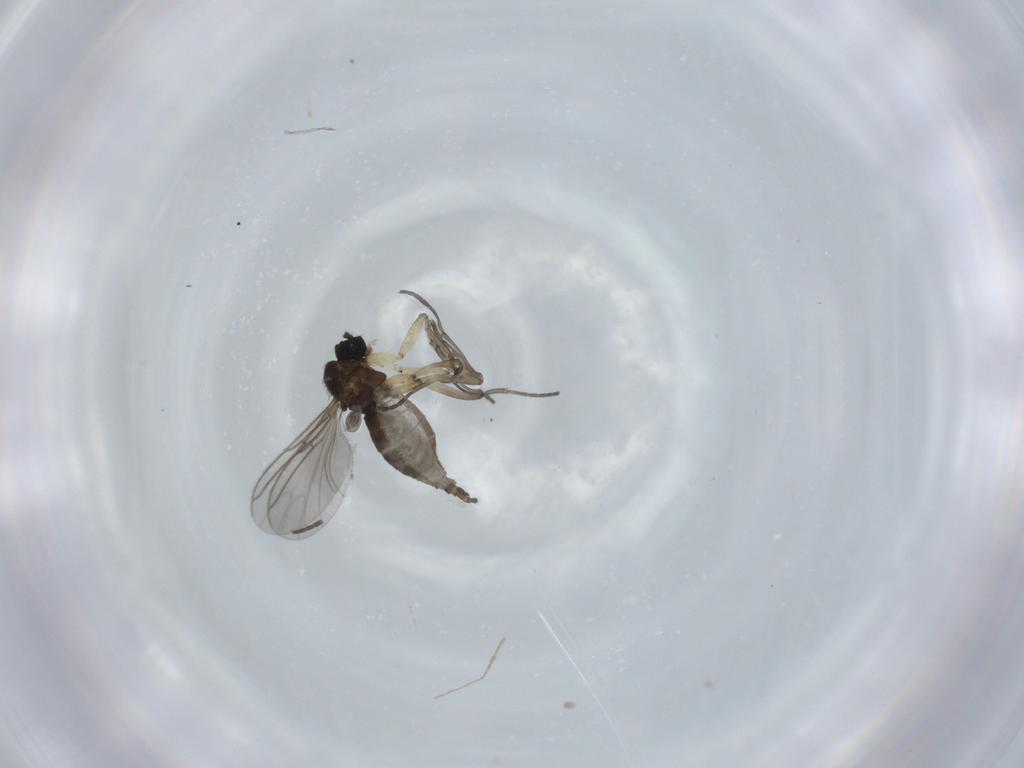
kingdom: Animalia
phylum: Arthropoda
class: Insecta
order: Diptera
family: Sciaridae
